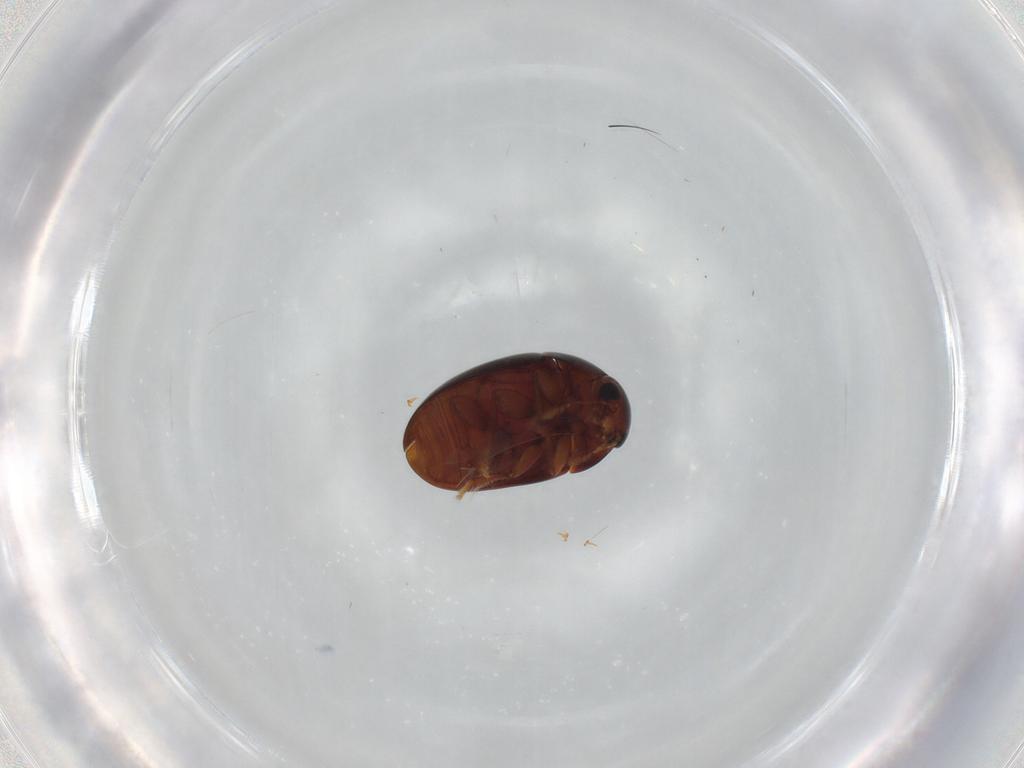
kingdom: Animalia
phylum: Arthropoda
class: Insecta
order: Coleoptera
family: Phalacridae
